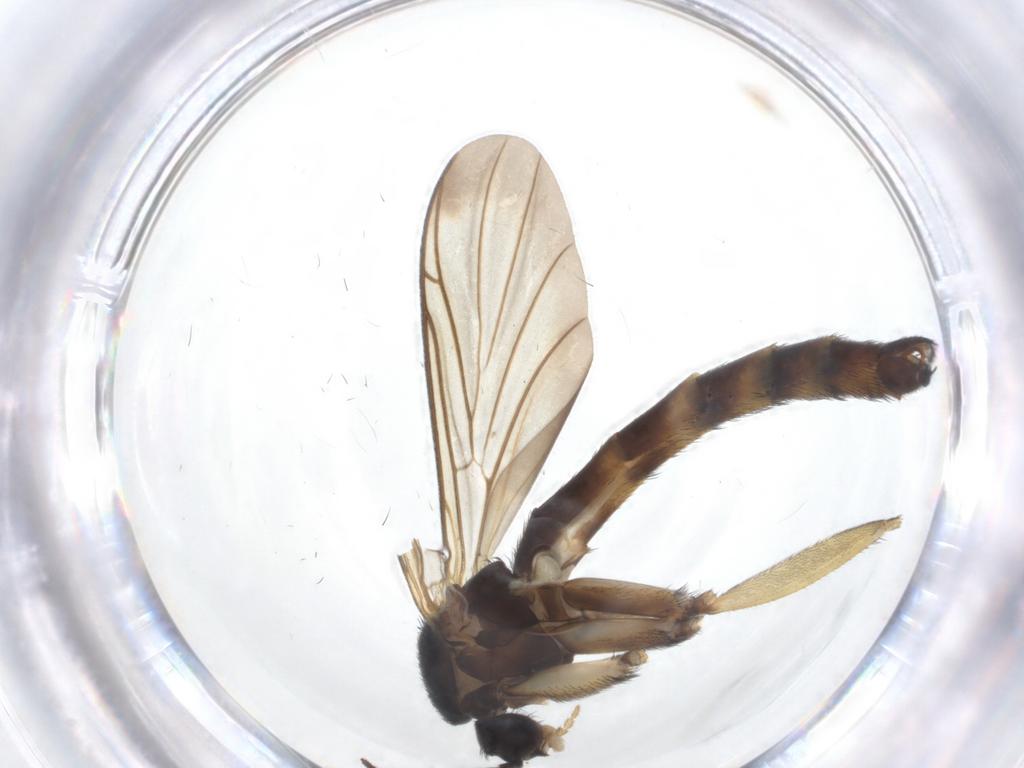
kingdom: Animalia
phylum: Arthropoda
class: Insecta
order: Diptera
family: Keroplatidae
